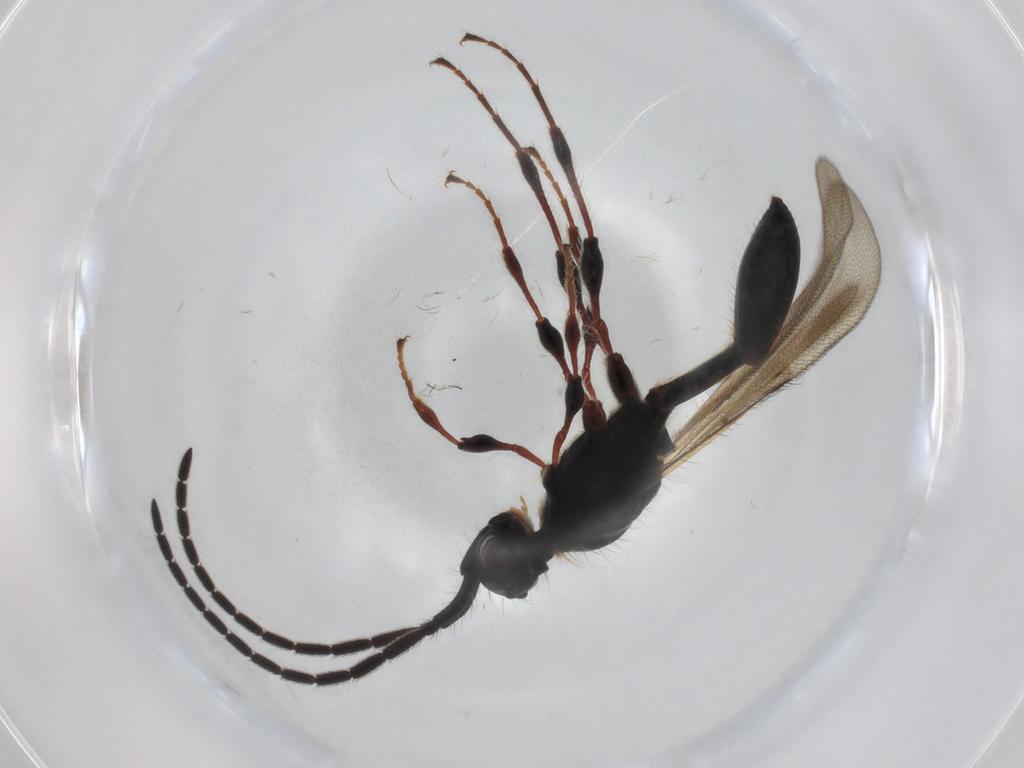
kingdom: Animalia
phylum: Arthropoda
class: Insecta
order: Hymenoptera
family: Diapriidae
